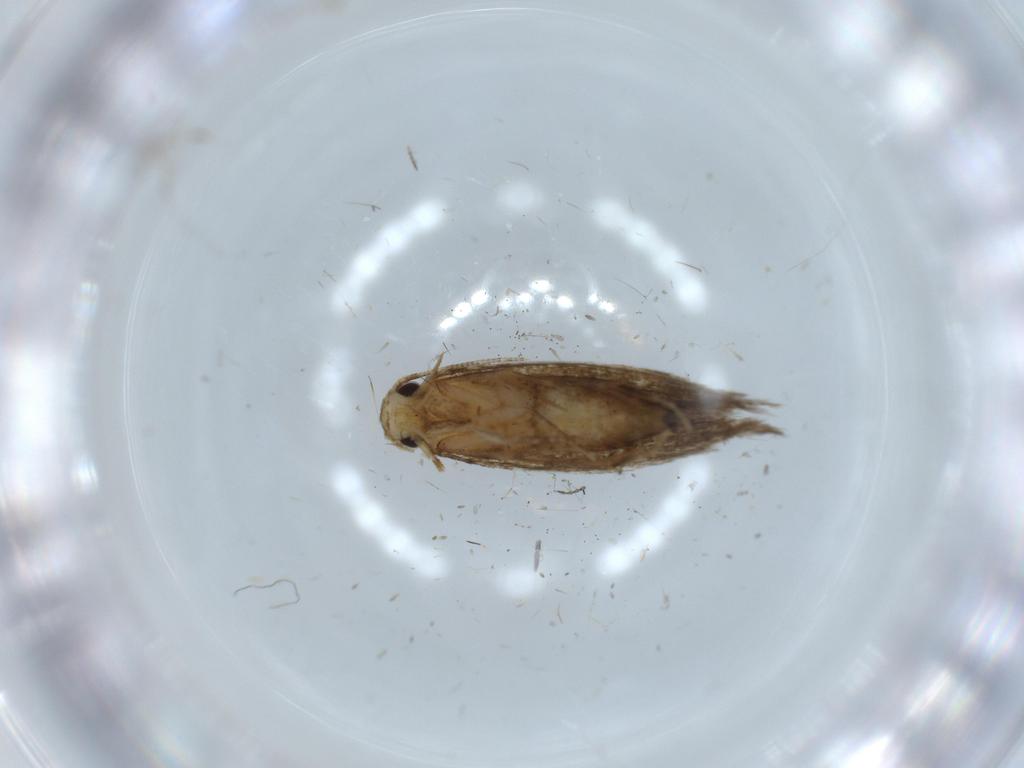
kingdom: Animalia
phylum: Arthropoda
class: Insecta
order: Lepidoptera
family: Tineidae
